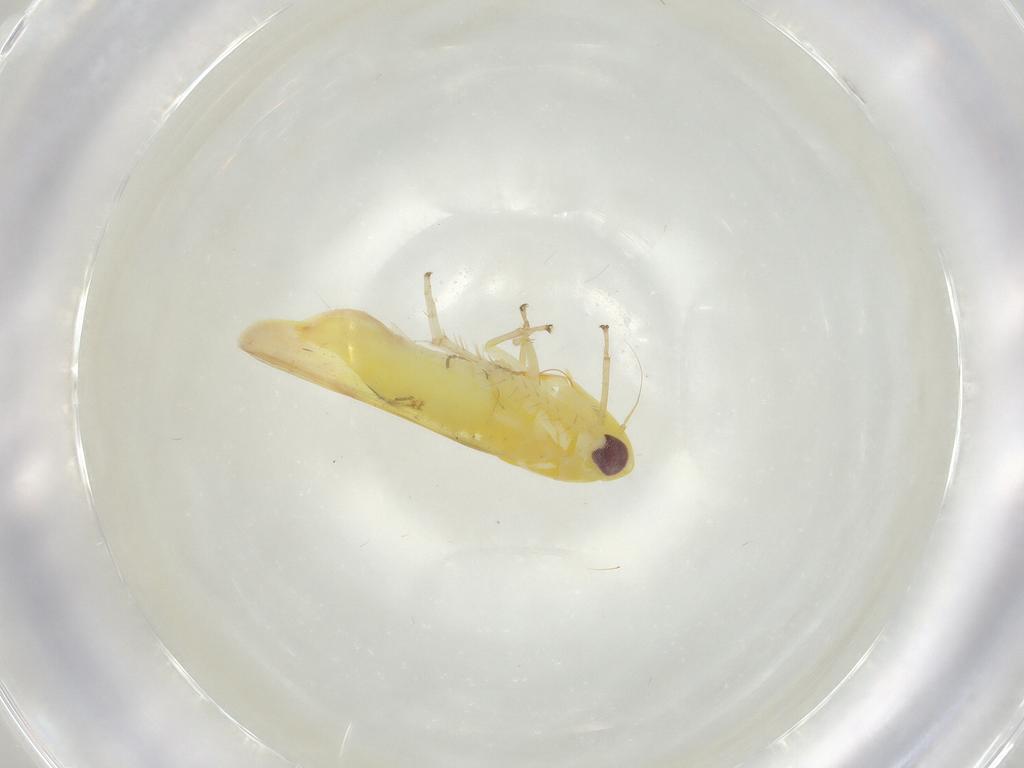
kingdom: Animalia
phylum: Arthropoda
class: Insecta
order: Hemiptera
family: Cicadellidae
